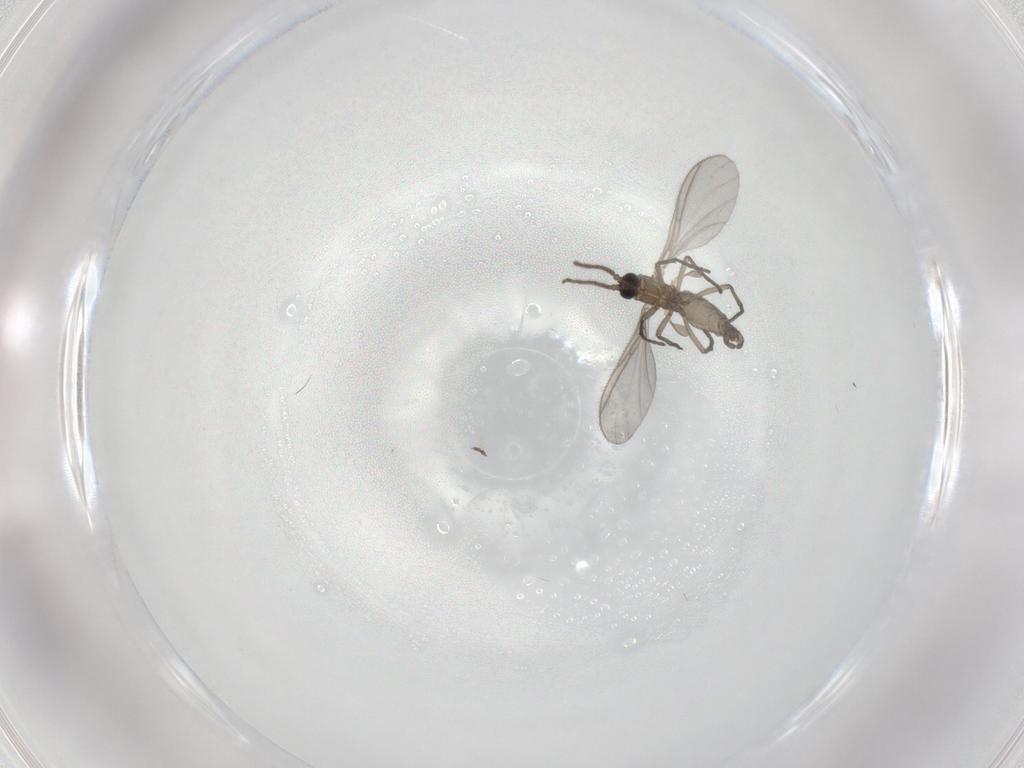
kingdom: Animalia
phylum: Arthropoda
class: Insecta
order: Diptera
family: Sciaridae
